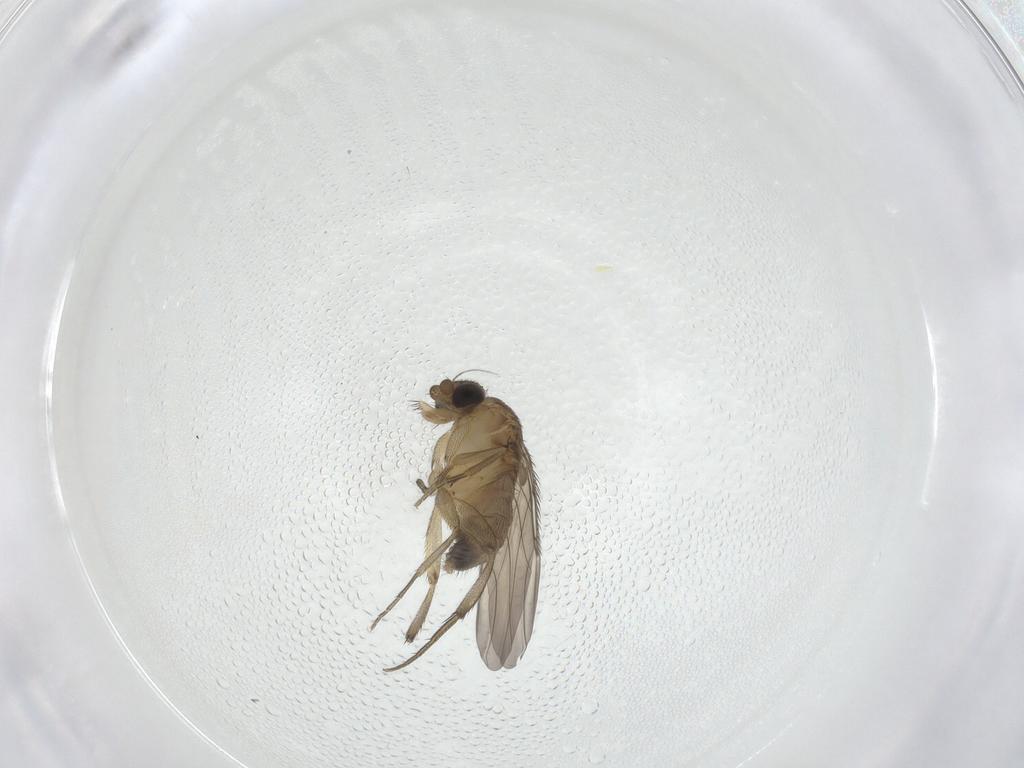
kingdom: Animalia
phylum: Arthropoda
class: Insecta
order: Diptera
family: Phoridae
